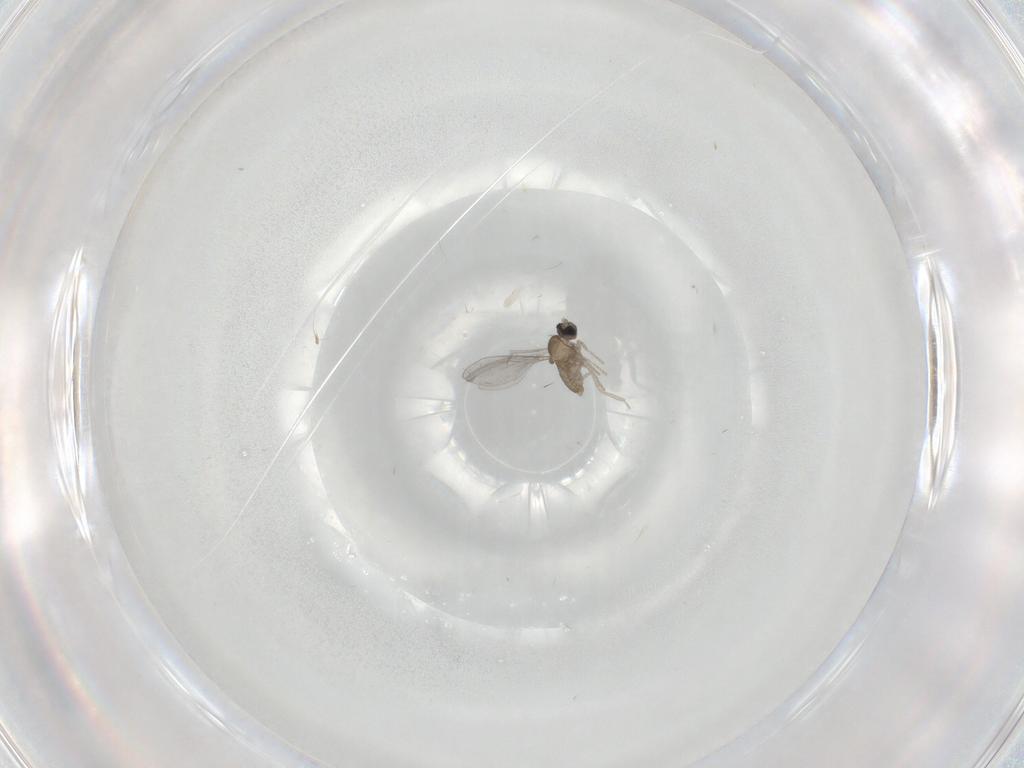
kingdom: Animalia
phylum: Arthropoda
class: Insecta
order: Diptera
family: Cecidomyiidae
